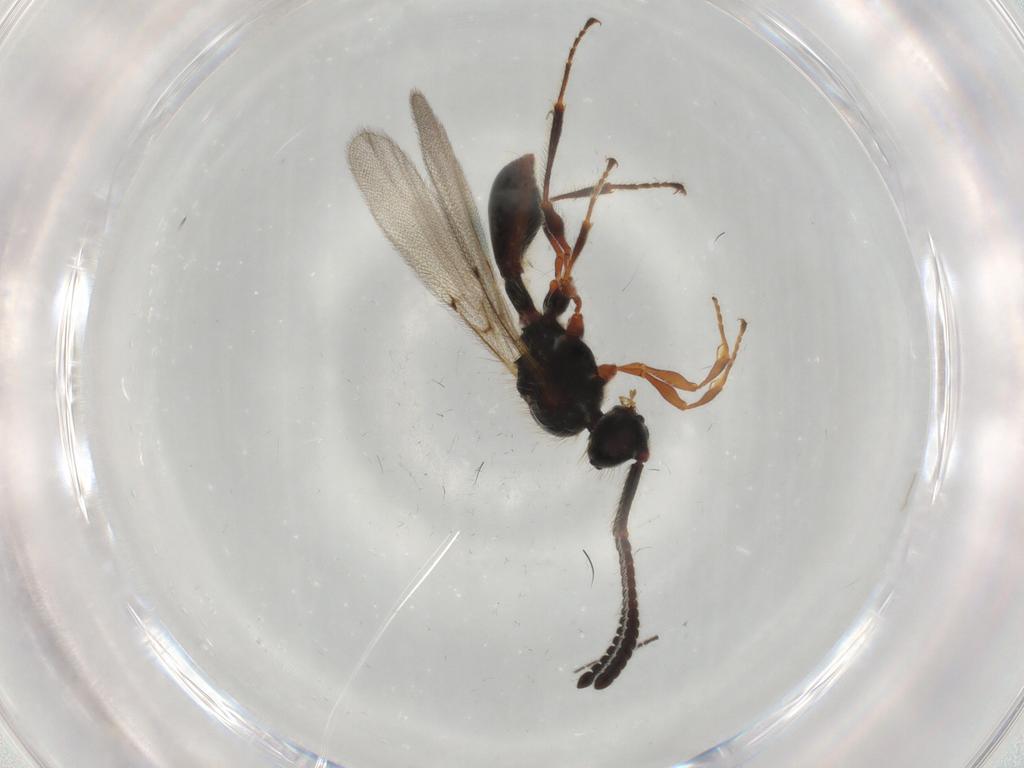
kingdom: Animalia
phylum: Arthropoda
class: Insecta
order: Hymenoptera
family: Diapriidae
